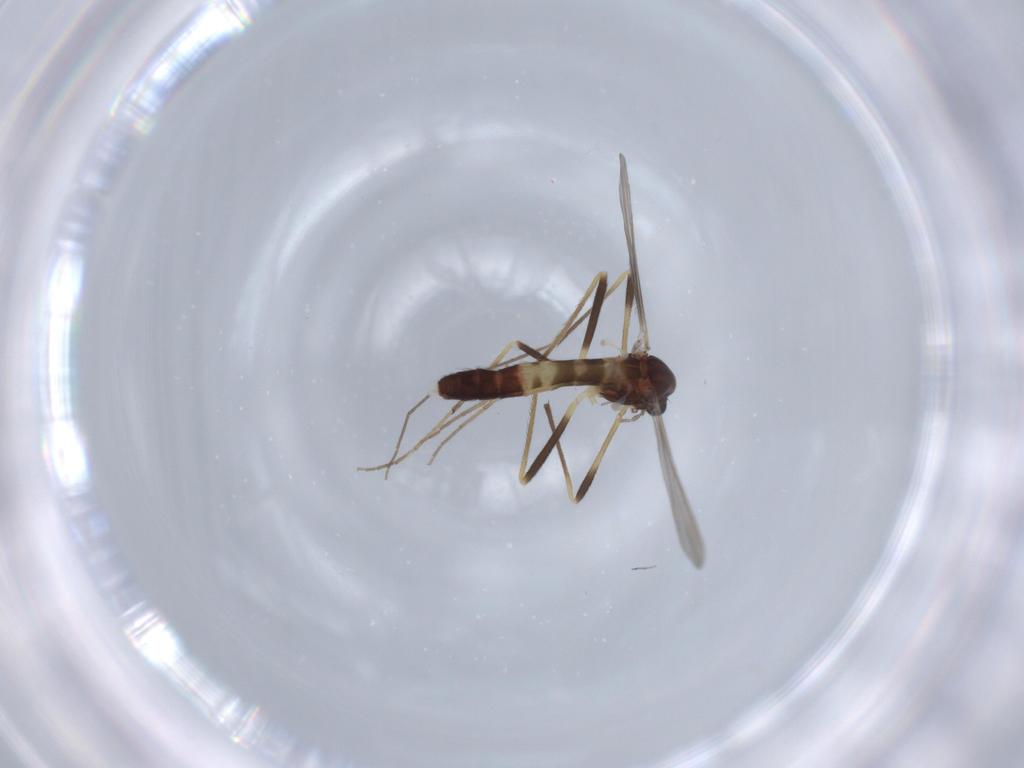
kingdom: Animalia
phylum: Arthropoda
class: Insecta
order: Diptera
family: Chironomidae
